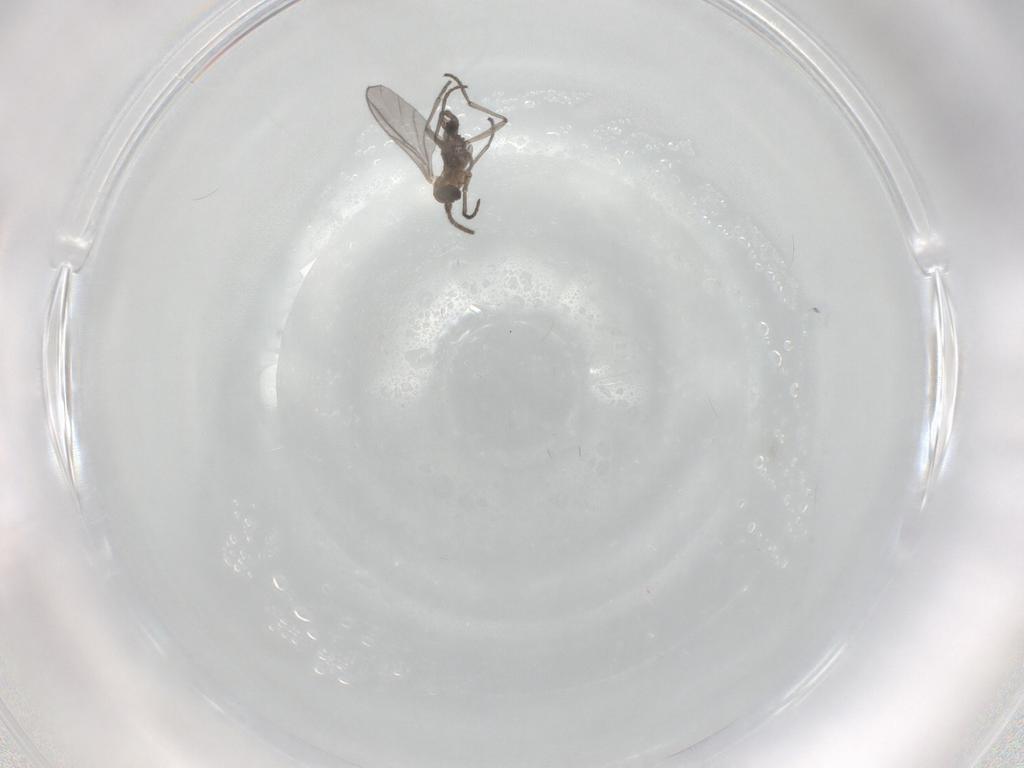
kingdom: Animalia
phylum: Arthropoda
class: Insecta
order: Diptera
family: Sciaridae
